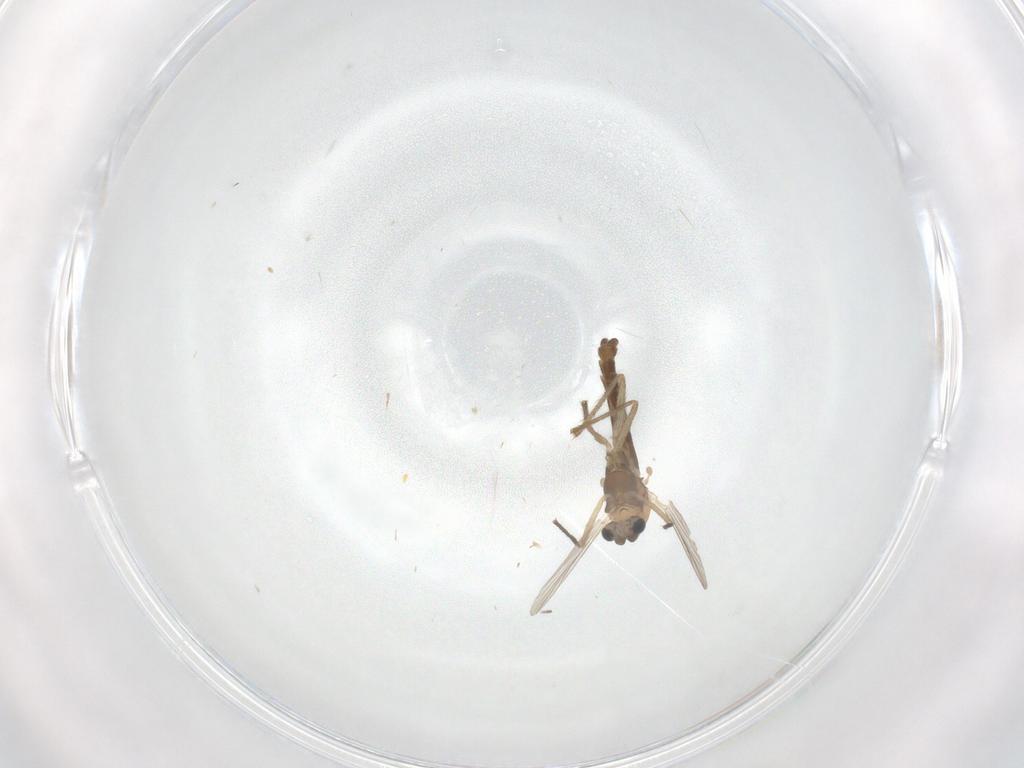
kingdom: Animalia
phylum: Arthropoda
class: Insecta
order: Diptera
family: Chironomidae
